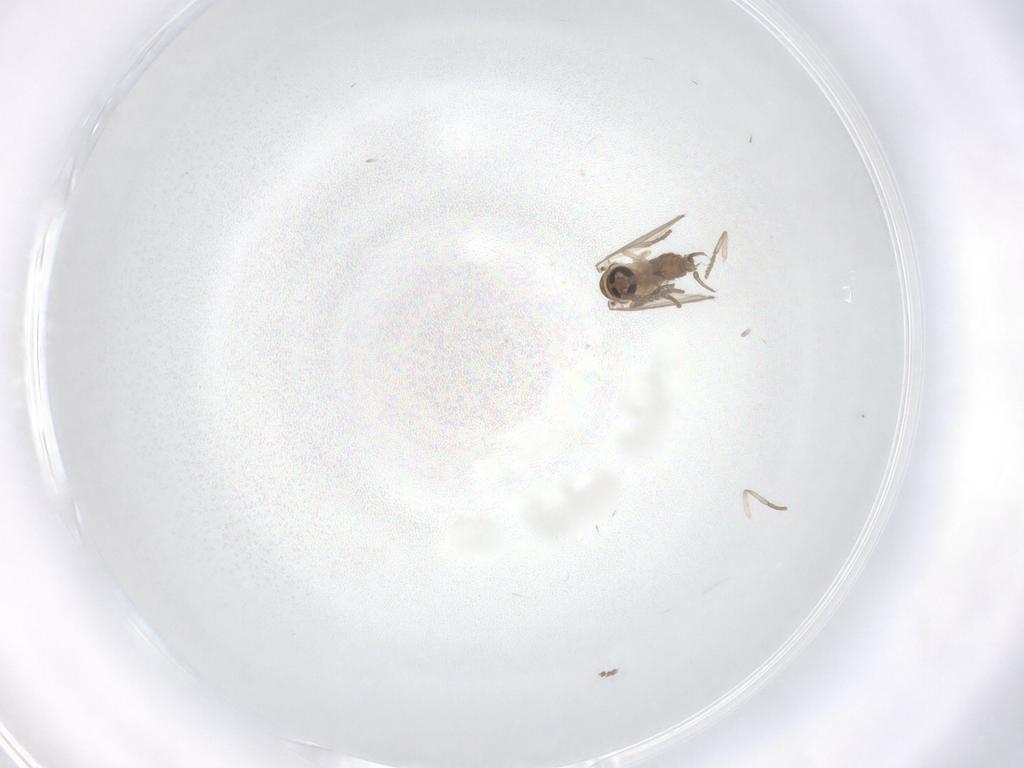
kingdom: Animalia
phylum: Arthropoda
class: Insecta
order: Diptera
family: Psychodidae
